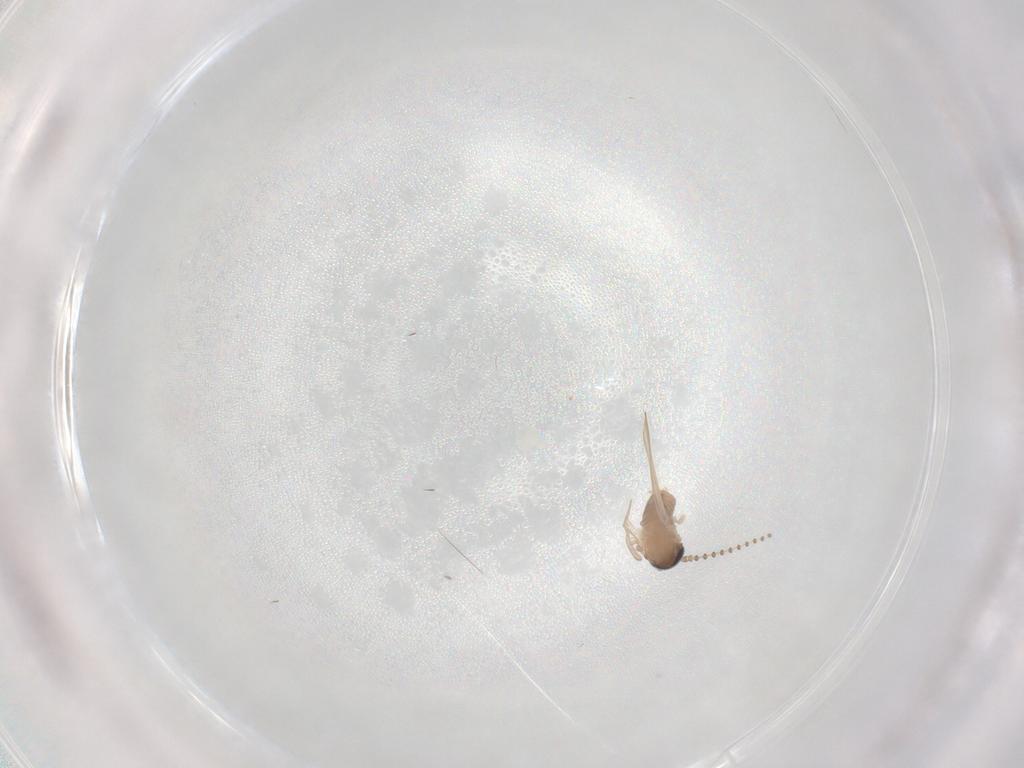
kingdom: Animalia
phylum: Arthropoda
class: Insecta
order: Diptera
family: Psychodidae
